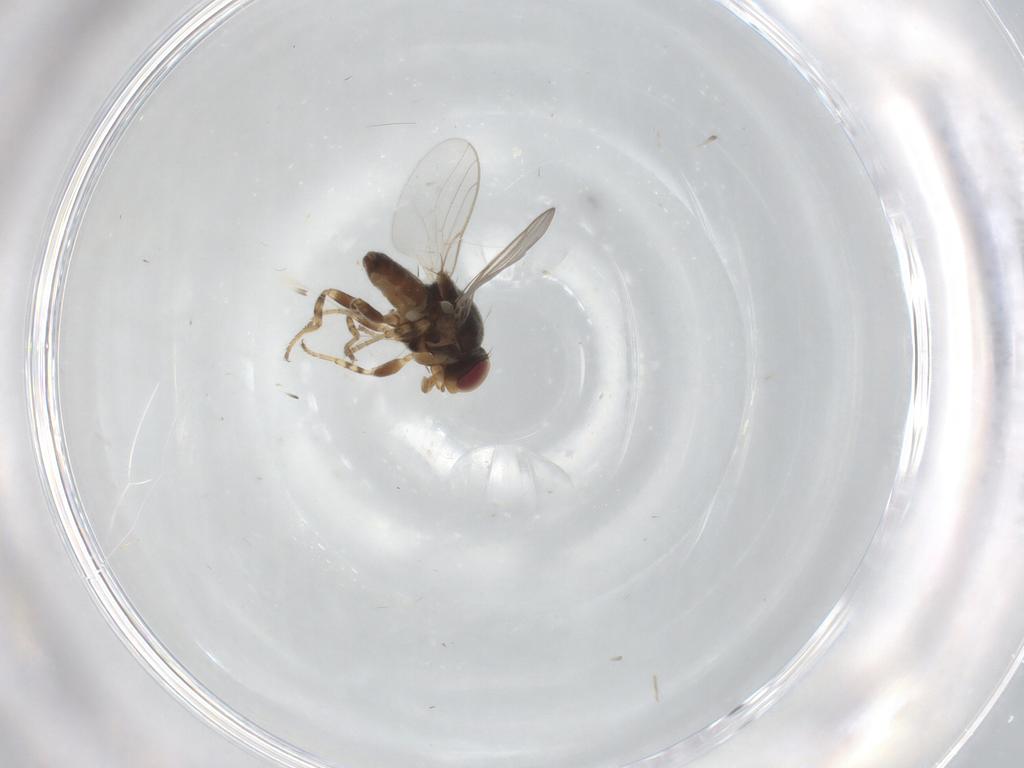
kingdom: Animalia
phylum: Arthropoda
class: Insecta
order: Diptera
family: Chloropidae
